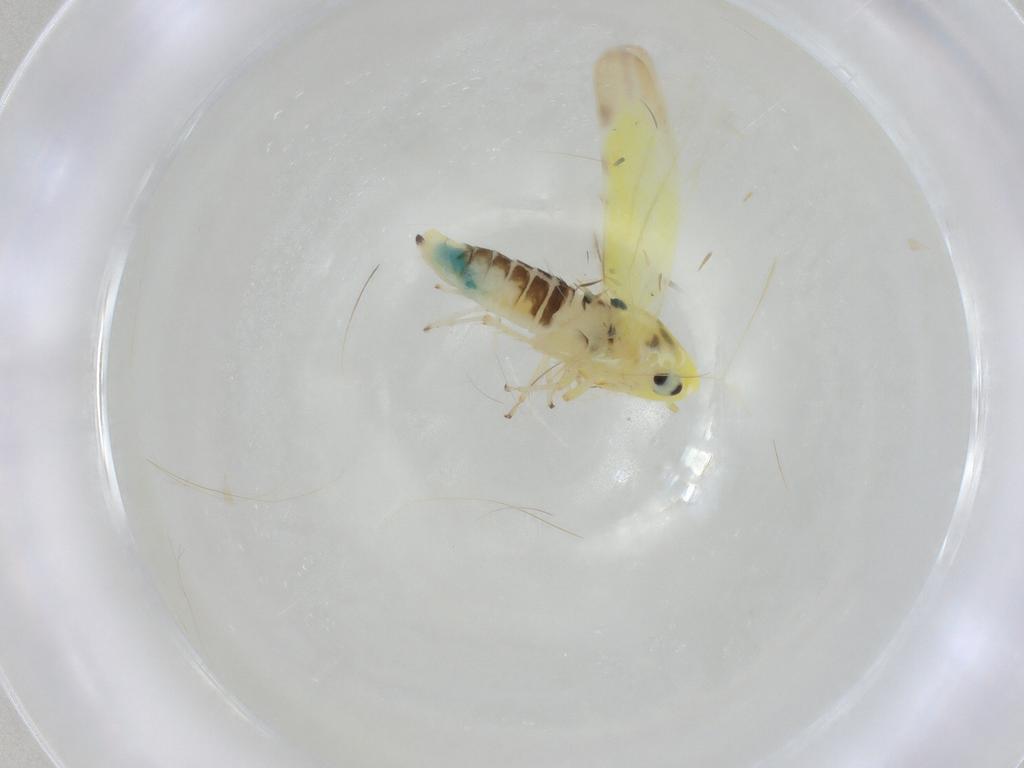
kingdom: Animalia
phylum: Arthropoda
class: Insecta
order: Hemiptera
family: Cicadellidae
